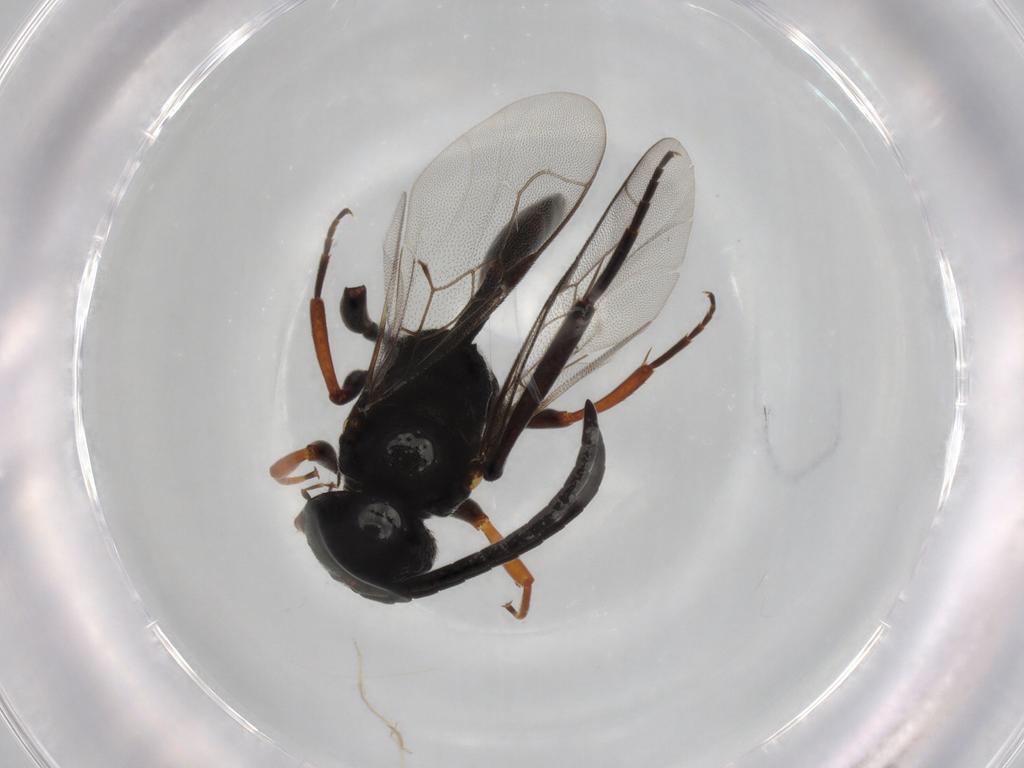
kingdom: Animalia
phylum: Arthropoda
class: Insecta
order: Hymenoptera
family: Evaniidae
